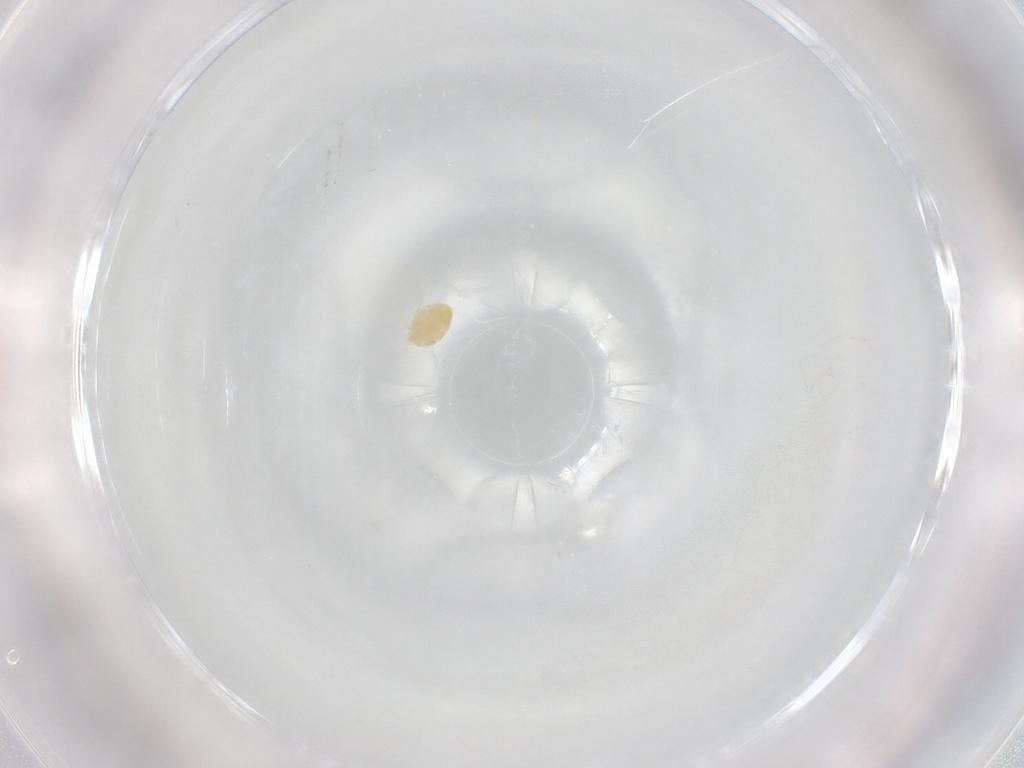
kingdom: Animalia
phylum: Arthropoda
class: Arachnida
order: Trombidiformes
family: Penthalodidae
